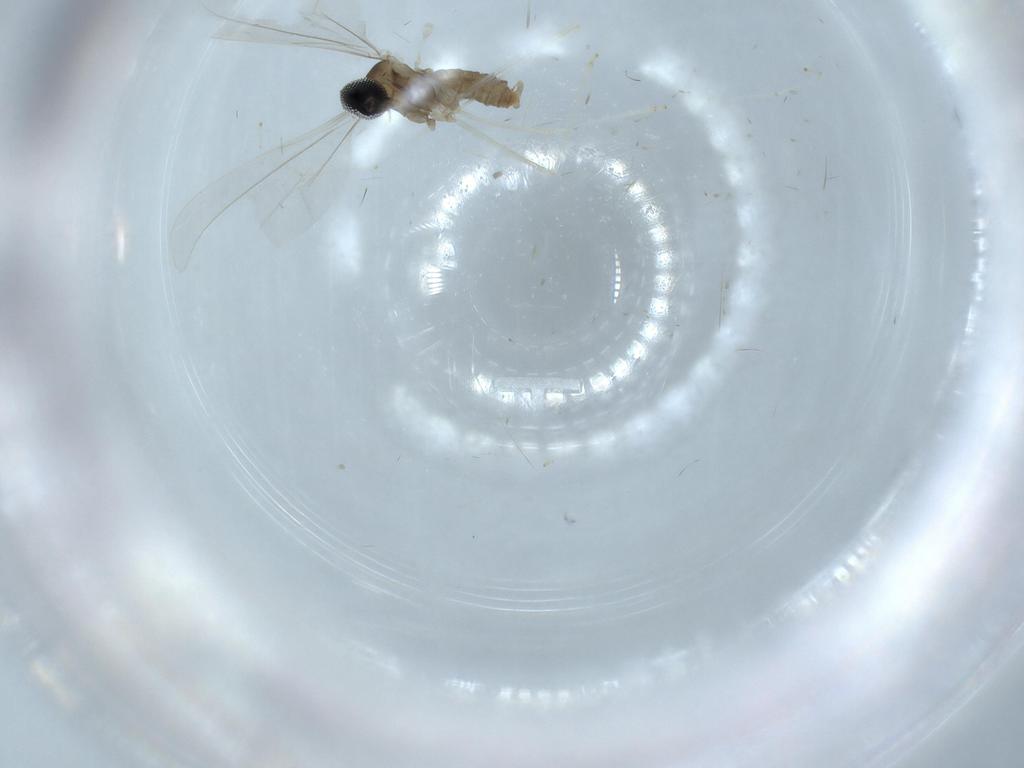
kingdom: Animalia
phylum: Arthropoda
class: Insecta
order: Diptera
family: Cecidomyiidae
